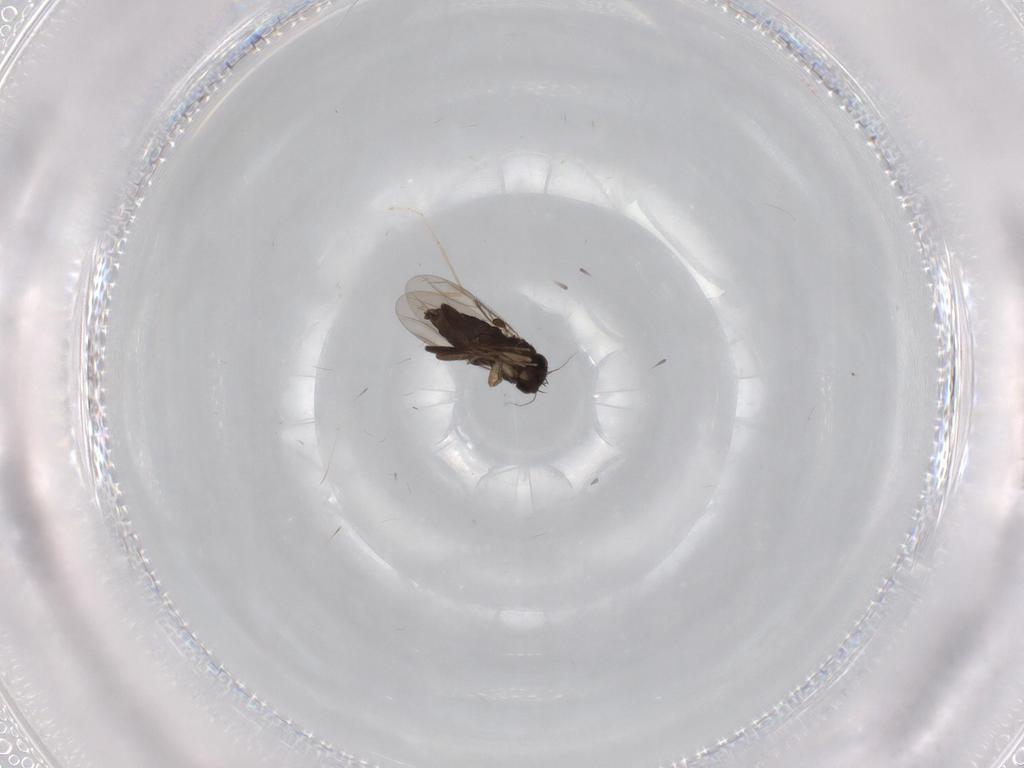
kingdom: Animalia
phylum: Arthropoda
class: Insecta
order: Diptera
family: Phoridae
